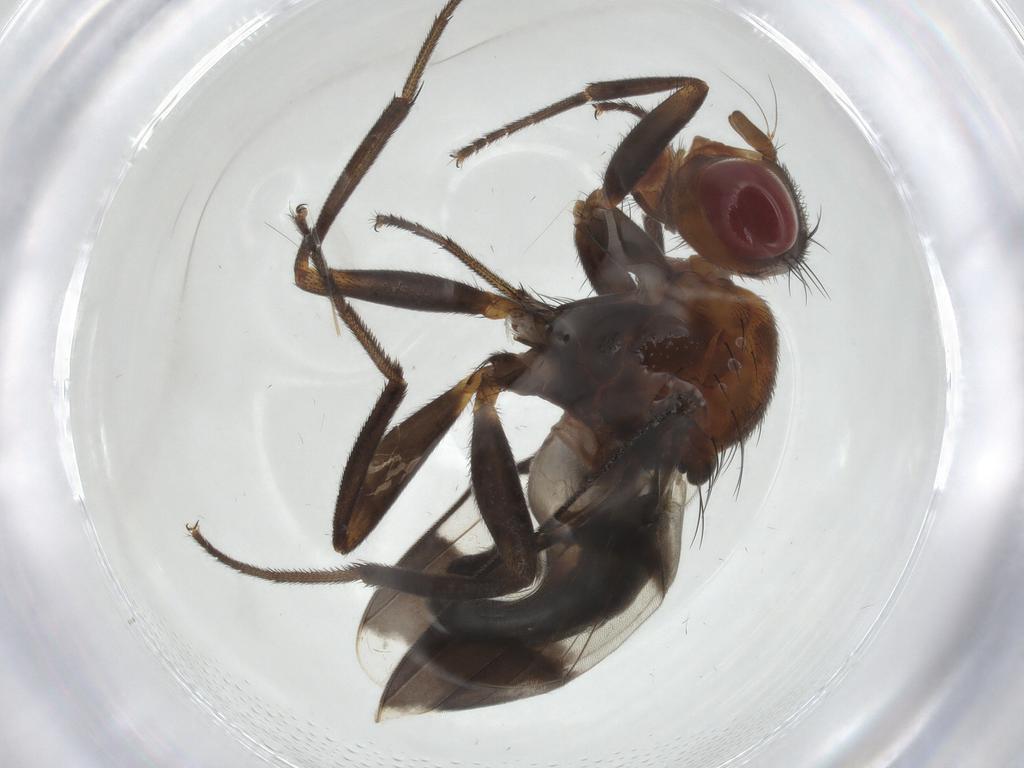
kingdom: Animalia
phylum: Arthropoda
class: Insecta
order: Diptera
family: Richardiidae
